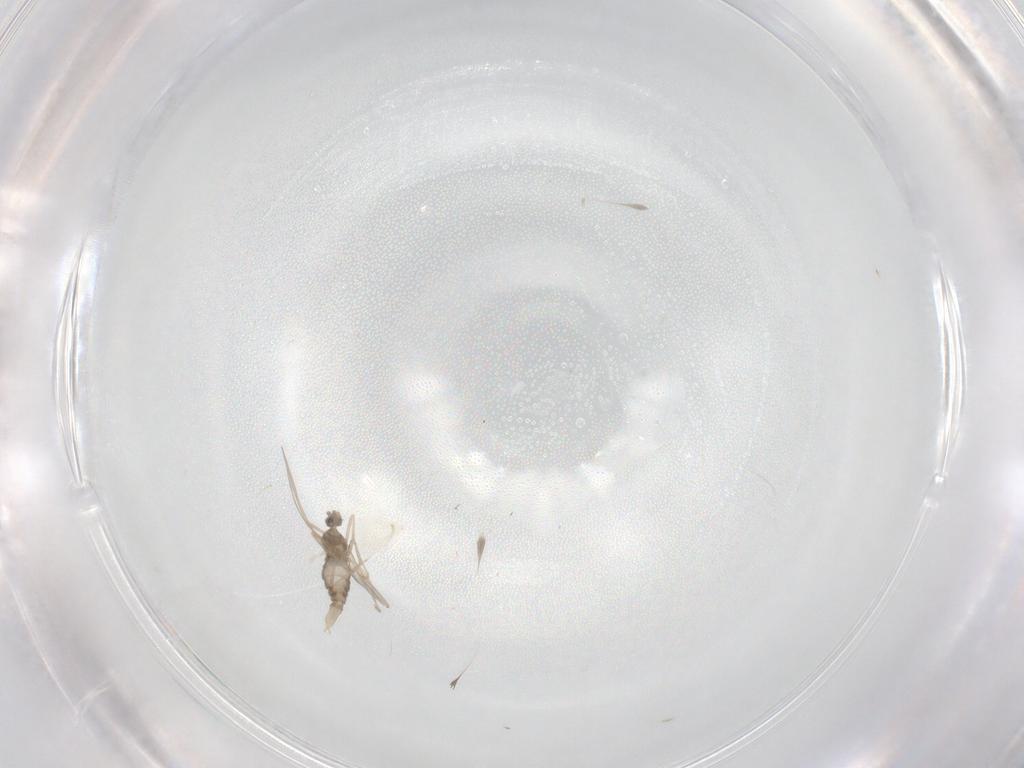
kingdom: Animalia
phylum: Arthropoda
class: Insecta
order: Diptera
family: Cecidomyiidae
